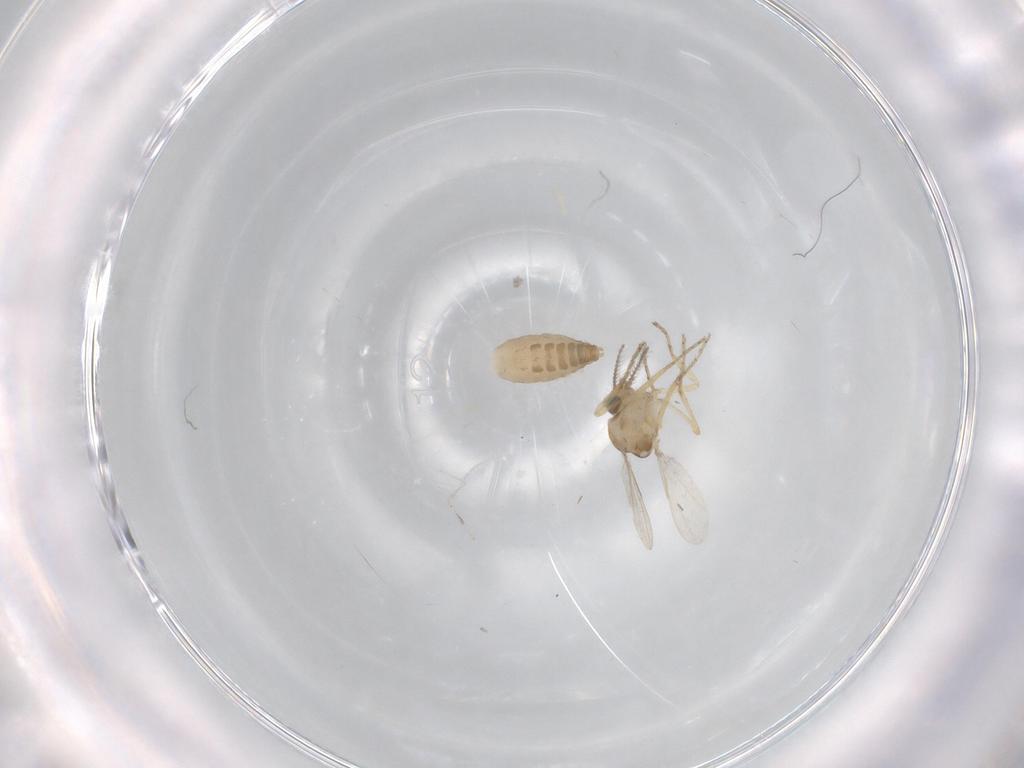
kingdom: Animalia
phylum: Arthropoda
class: Insecta
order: Diptera
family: Ceratopogonidae
